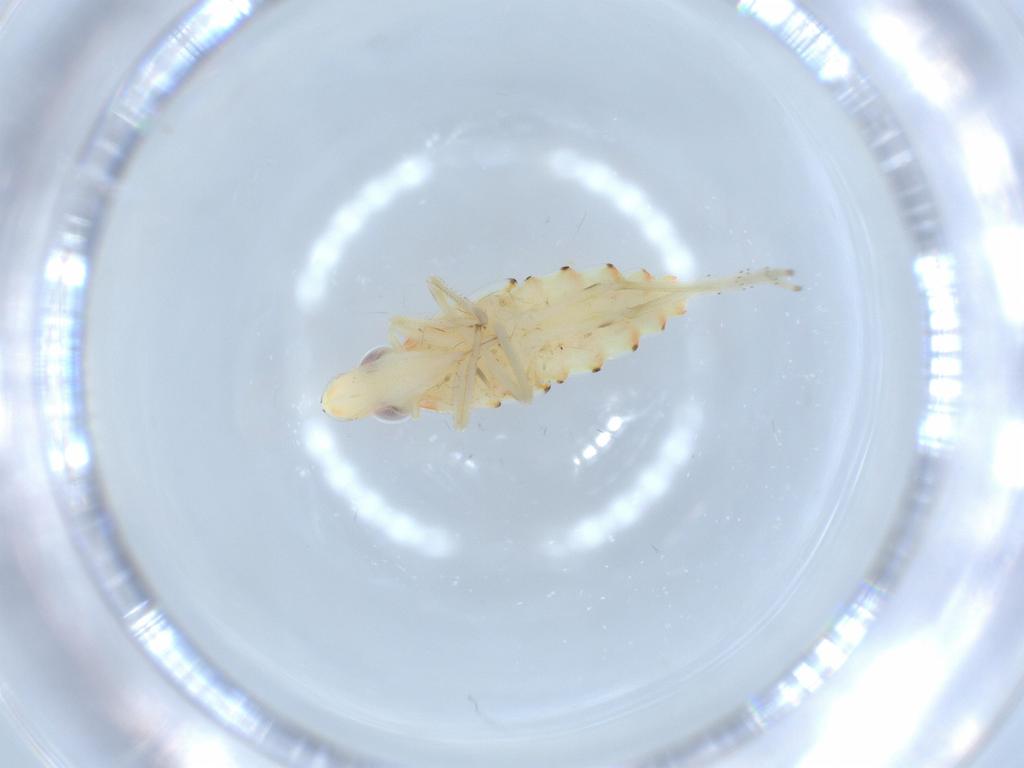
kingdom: Animalia
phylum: Arthropoda
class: Insecta
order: Hemiptera
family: Tropiduchidae
